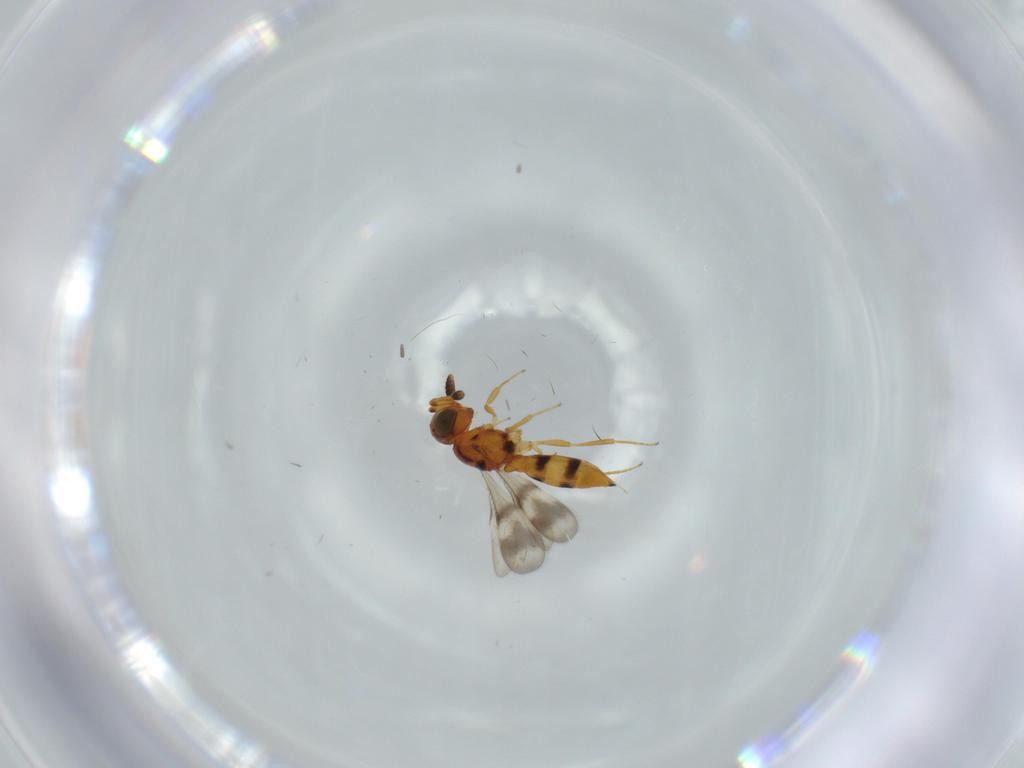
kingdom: Animalia
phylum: Arthropoda
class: Insecta
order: Hymenoptera
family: Scelionidae
